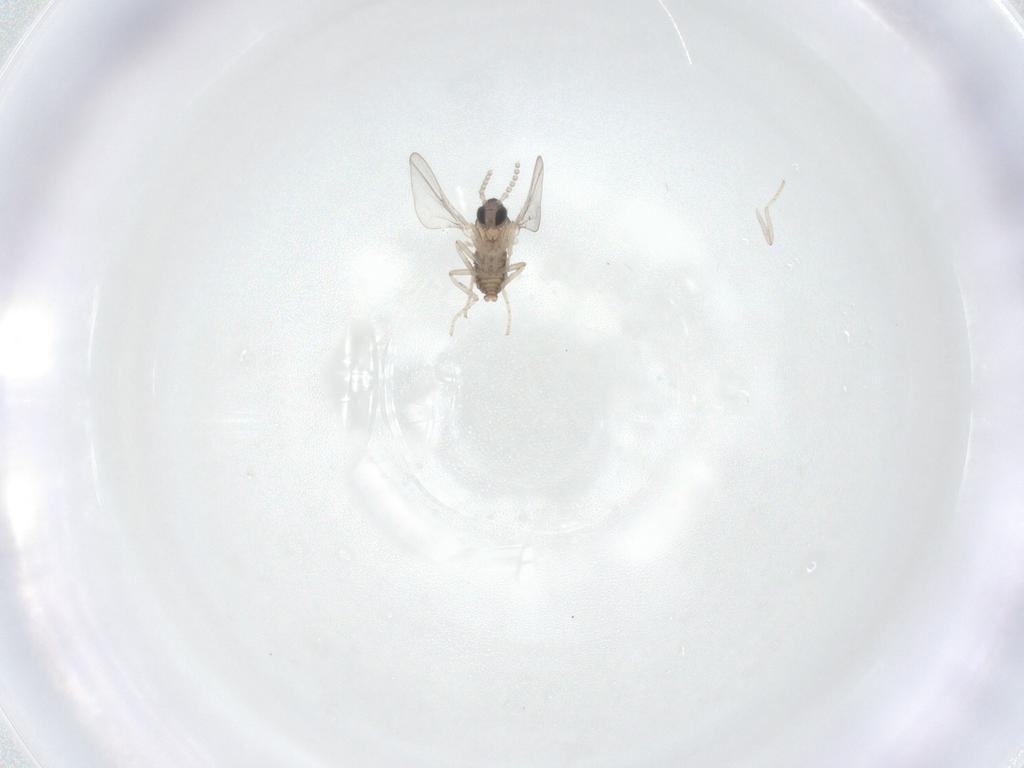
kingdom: Animalia
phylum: Arthropoda
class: Insecta
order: Diptera
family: Cecidomyiidae
